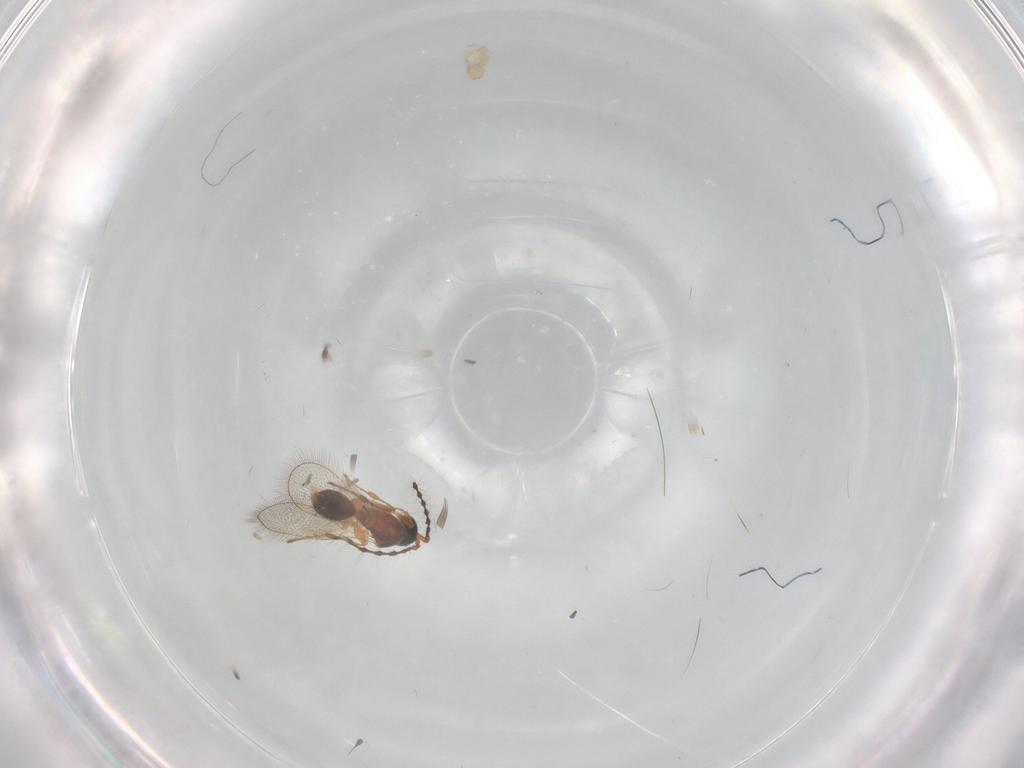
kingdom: Animalia
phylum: Arthropoda
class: Insecta
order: Hymenoptera
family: Diapriidae
